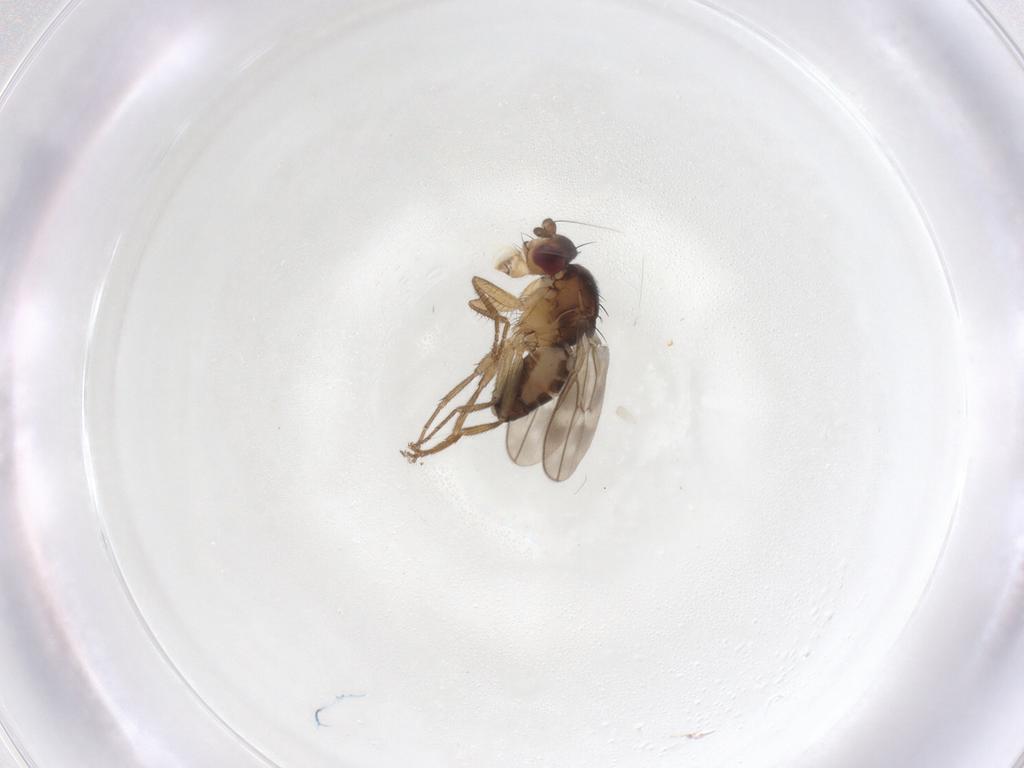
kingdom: Animalia
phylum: Arthropoda
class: Insecta
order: Diptera
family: Sphaeroceridae
